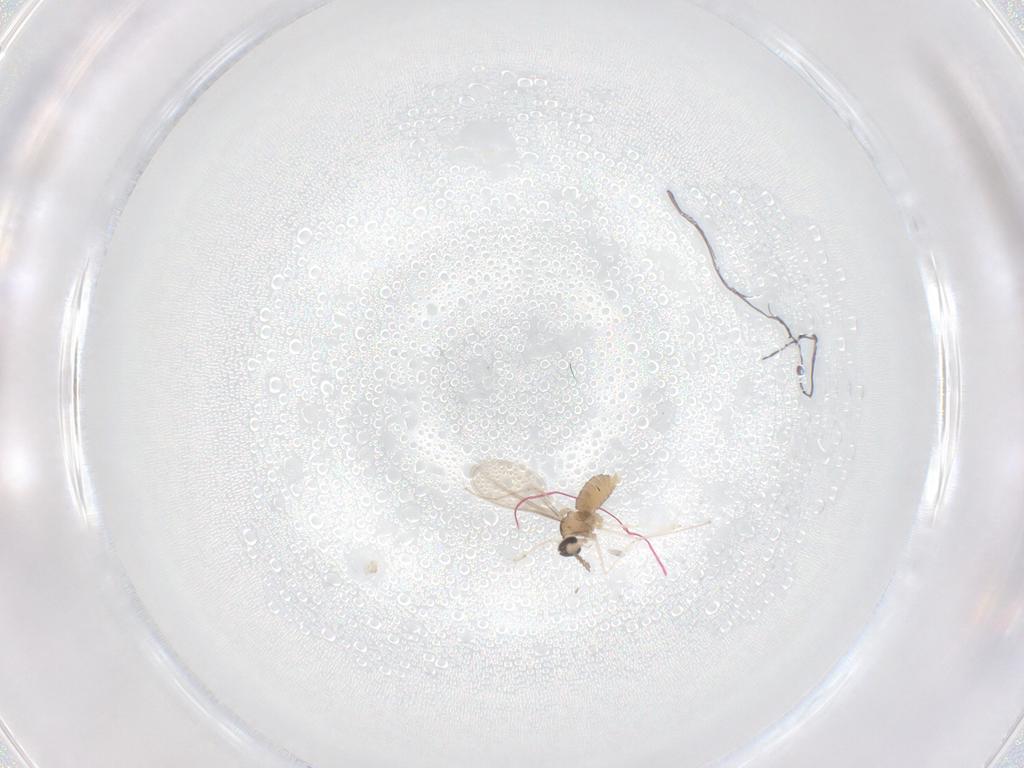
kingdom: Animalia
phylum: Arthropoda
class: Insecta
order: Diptera
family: Chironomidae
